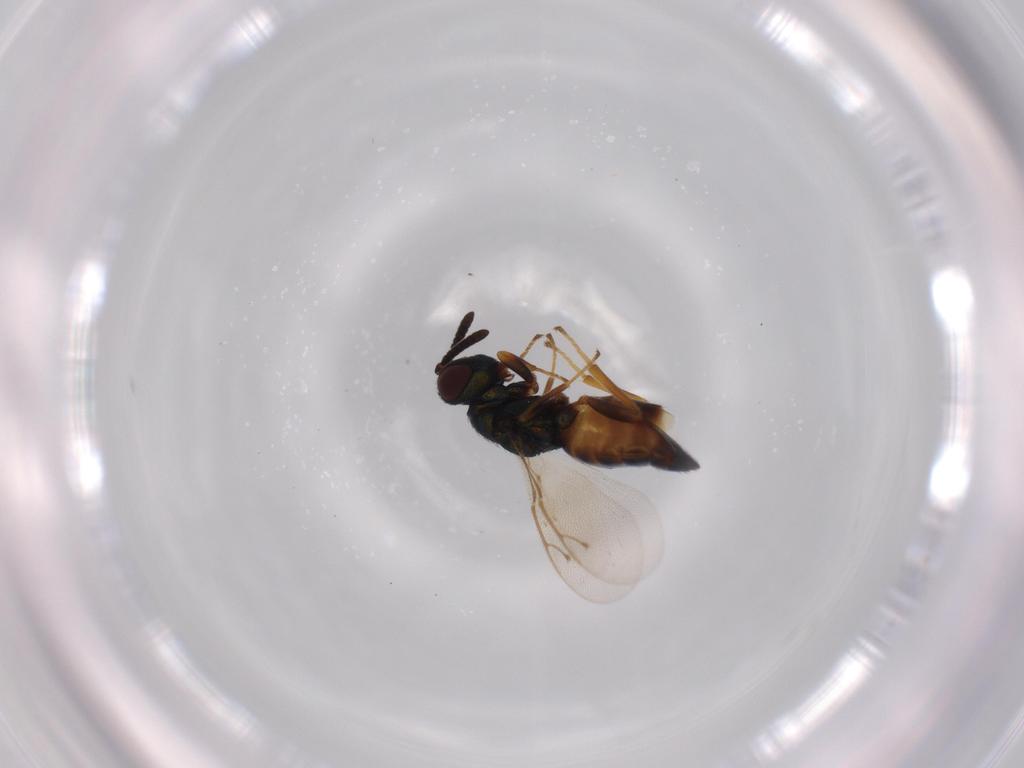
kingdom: Animalia
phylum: Arthropoda
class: Insecta
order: Hymenoptera
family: Pteromalidae
